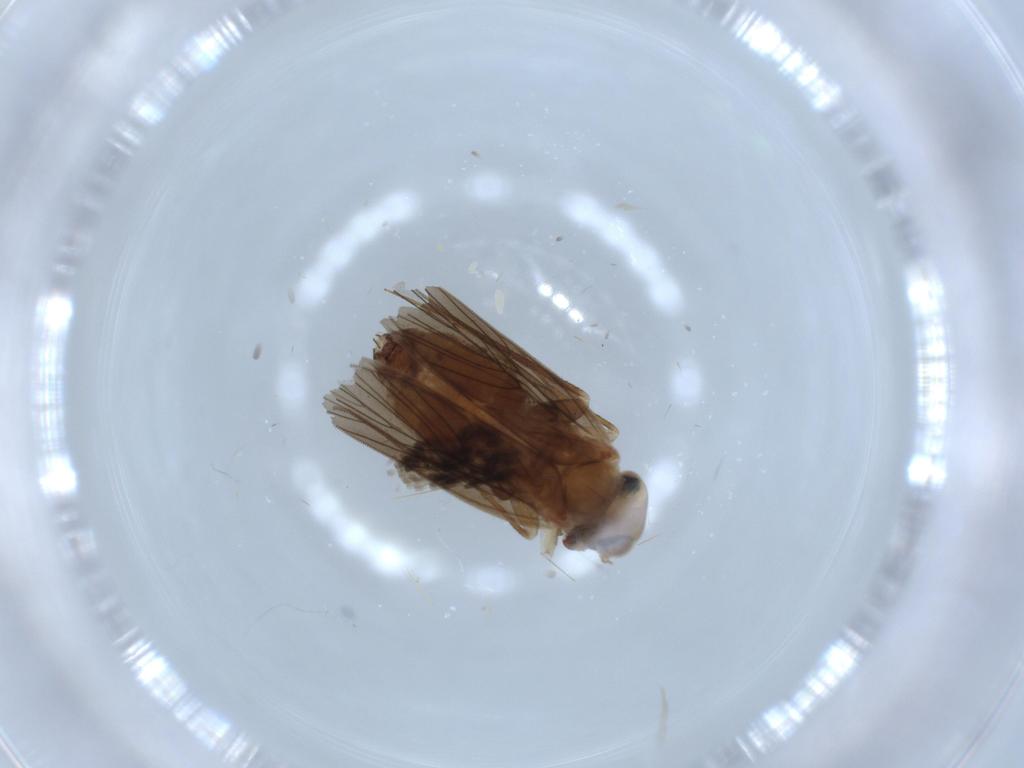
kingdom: Animalia
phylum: Arthropoda
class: Insecta
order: Psocodea
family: Lepidopsocidae
